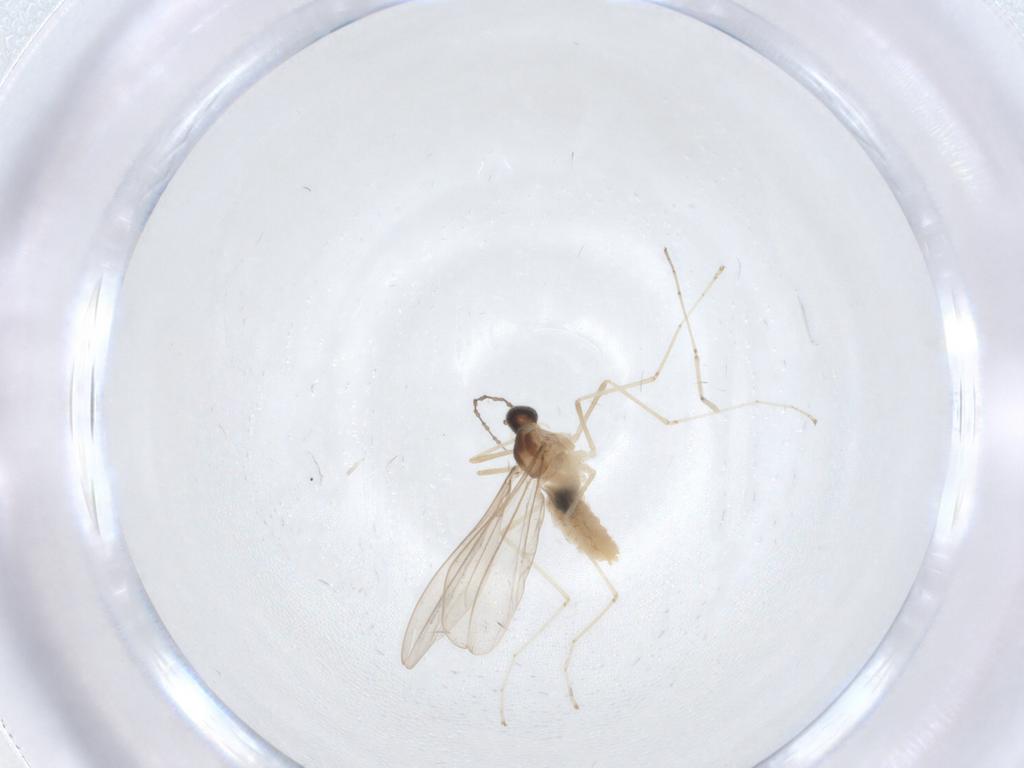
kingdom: Animalia
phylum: Arthropoda
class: Insecta
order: Diptera
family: Cecidomyiidae
